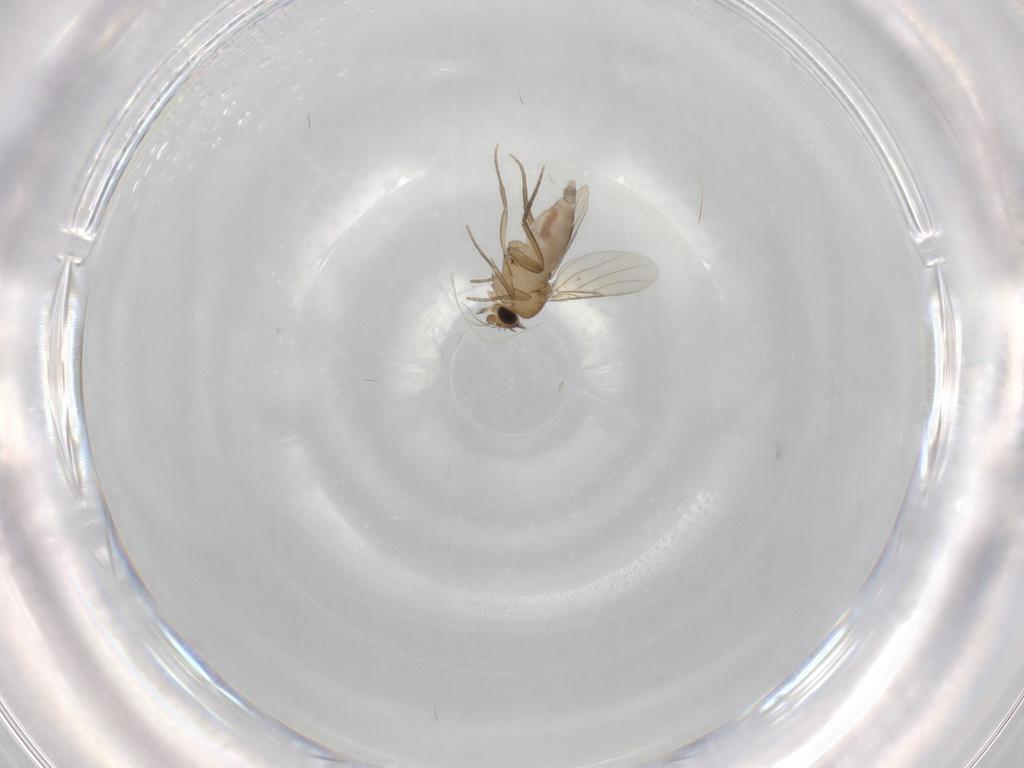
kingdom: Animalia
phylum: Arthropoda
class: Insecta
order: Diptera
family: Phoridae
